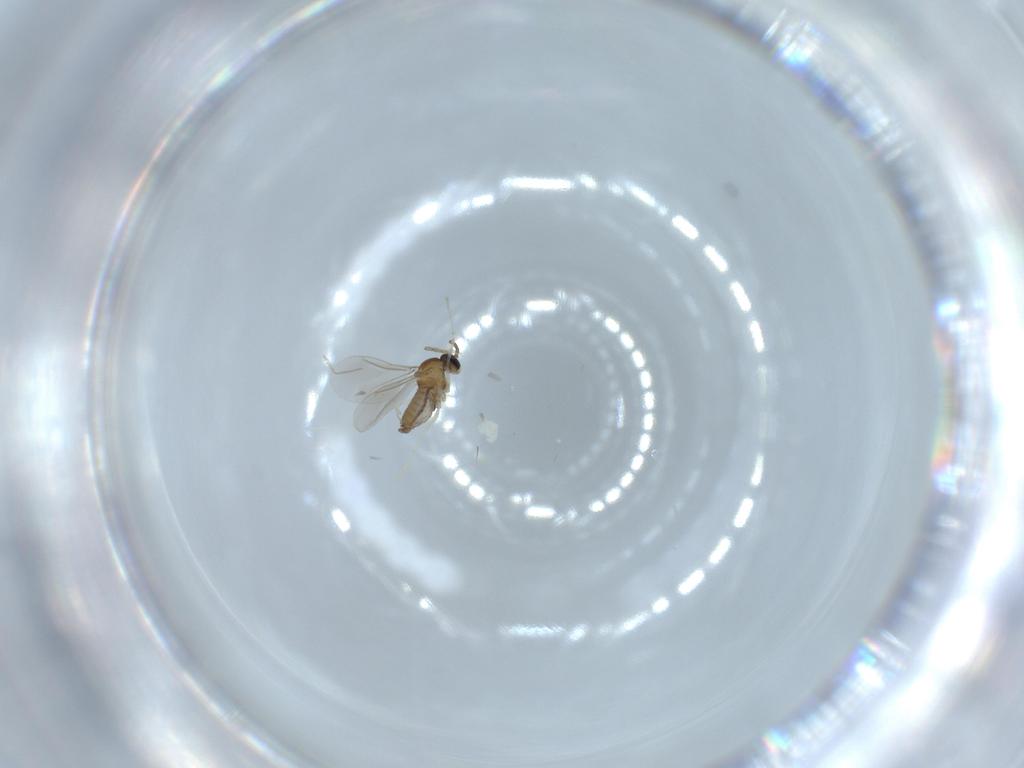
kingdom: Animalia
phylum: Arthropoda
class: Insecta
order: Diptera
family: Cecidomyiidae
